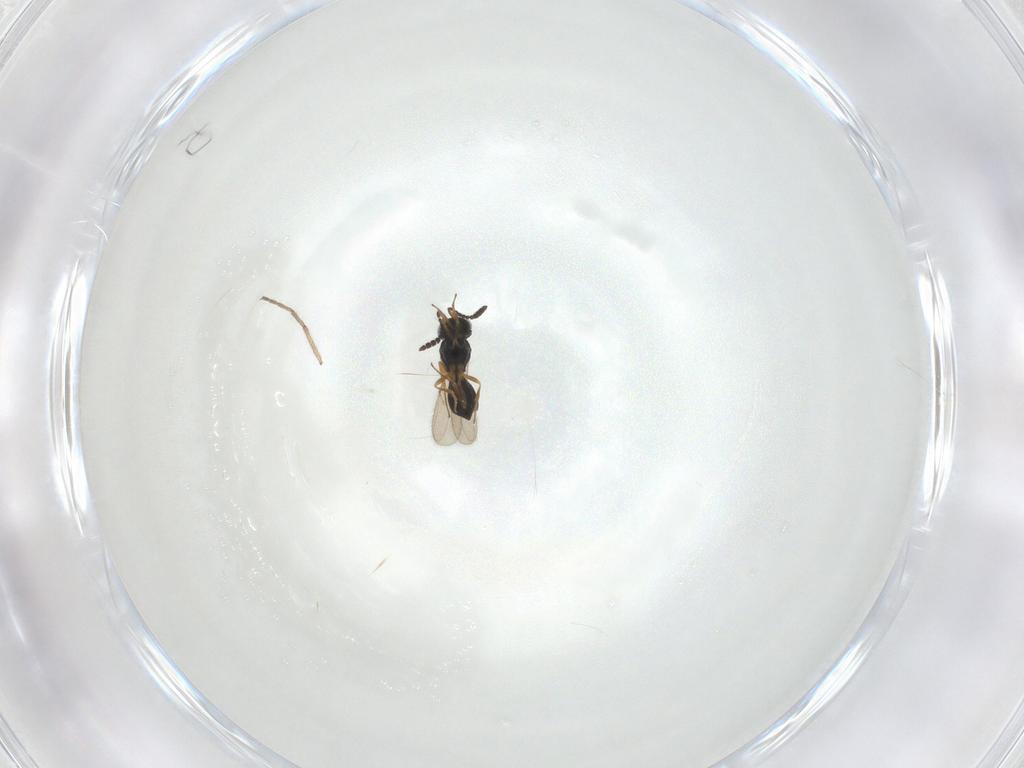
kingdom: Animalia
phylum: Arthropoda
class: Insecta
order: Hymenoptera
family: Scelionidae
